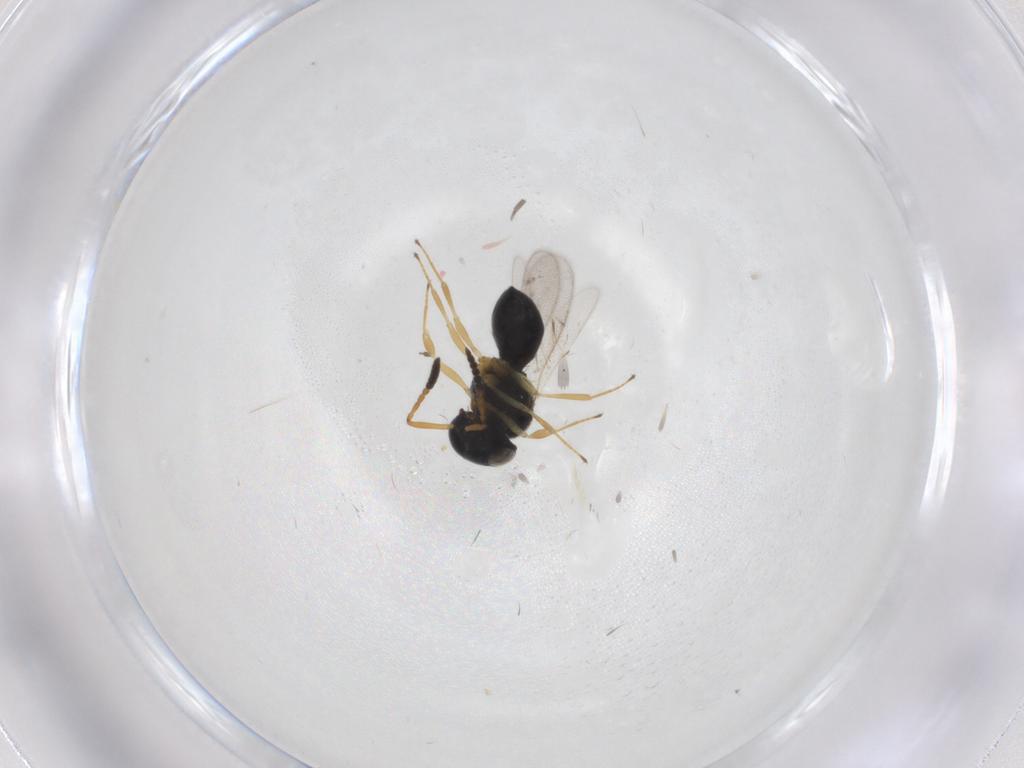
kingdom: Animalia
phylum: Arthropoda
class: Insecta
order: Hymenoptera
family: Scelionidae
